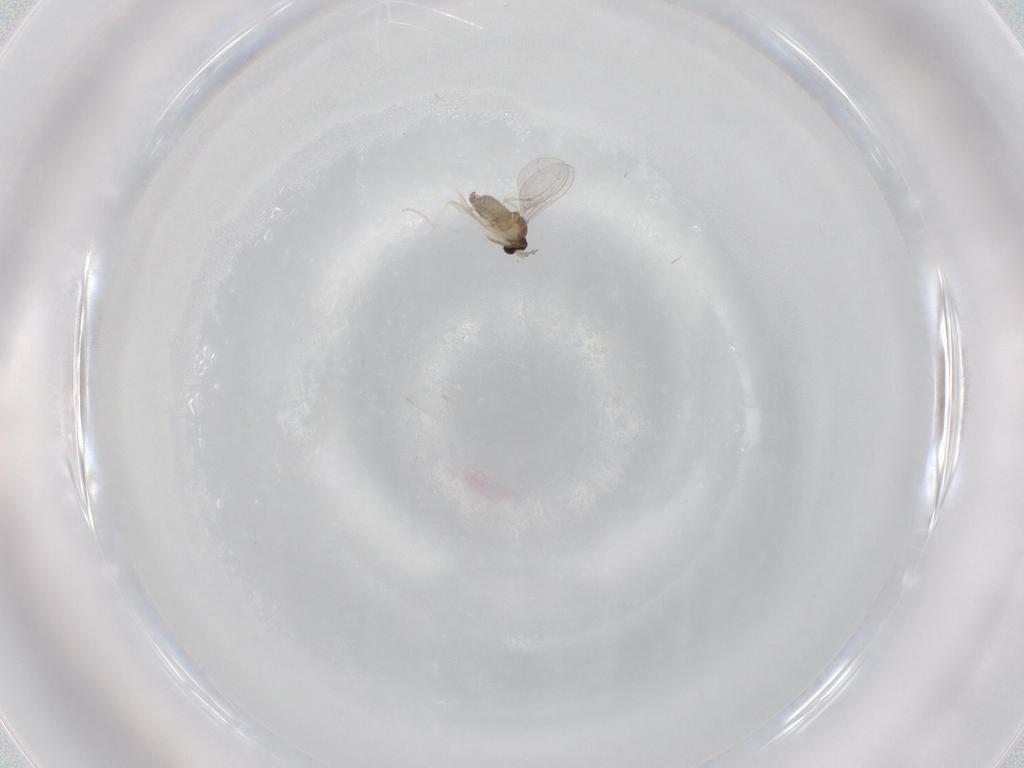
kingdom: Animalia
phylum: Arthropoda
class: Insecta
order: Diptera
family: Cecidomyiidae
